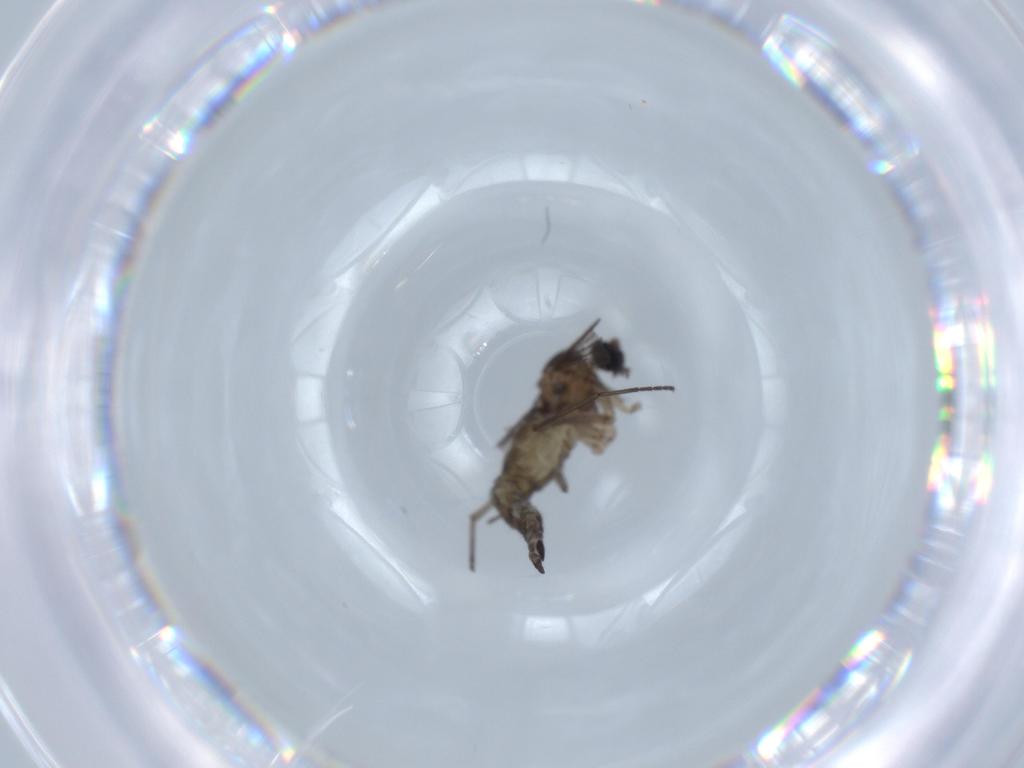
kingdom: Animalia
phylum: Arthropoda
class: Insecta
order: Diptera
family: Sciaridae
